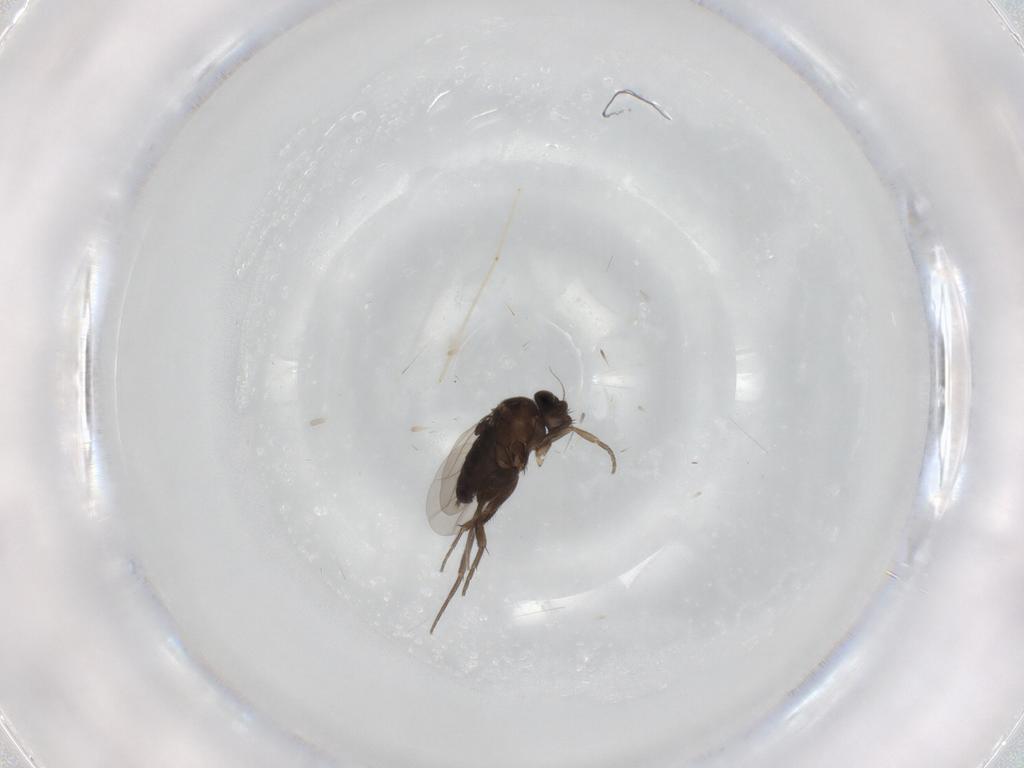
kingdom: Animalia
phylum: Arthropoda
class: Insecta
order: Diptera
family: Phoridae
